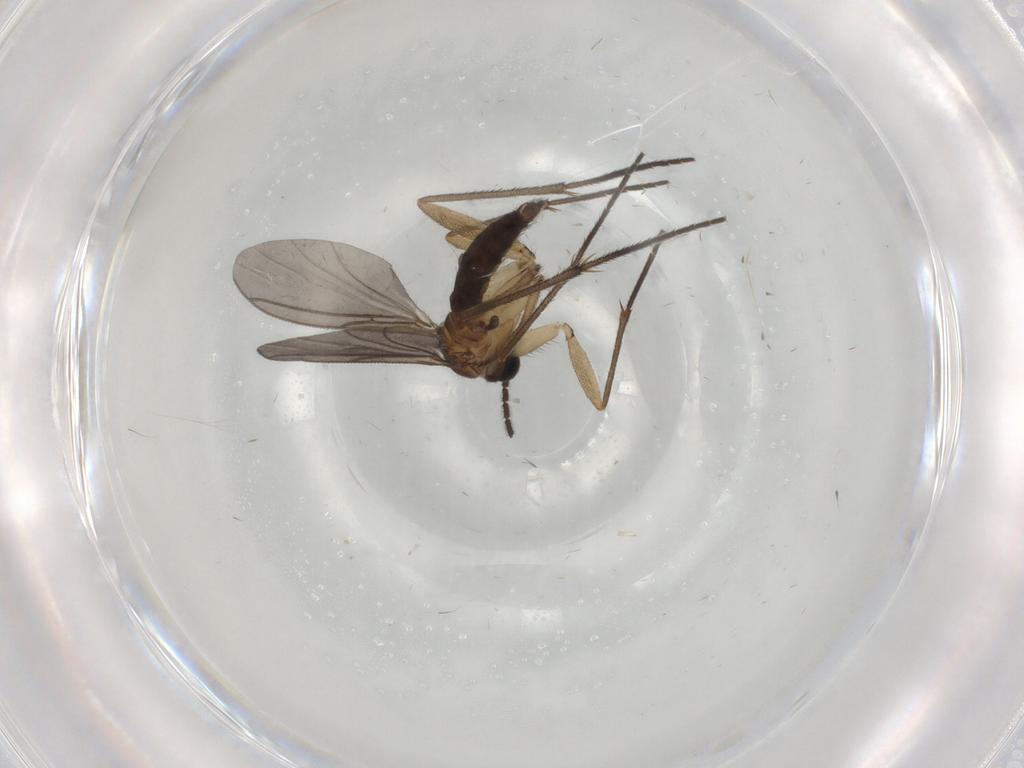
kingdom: Animalia
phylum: Arthropoda
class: Insecta
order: Diptera
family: Sciaridae
